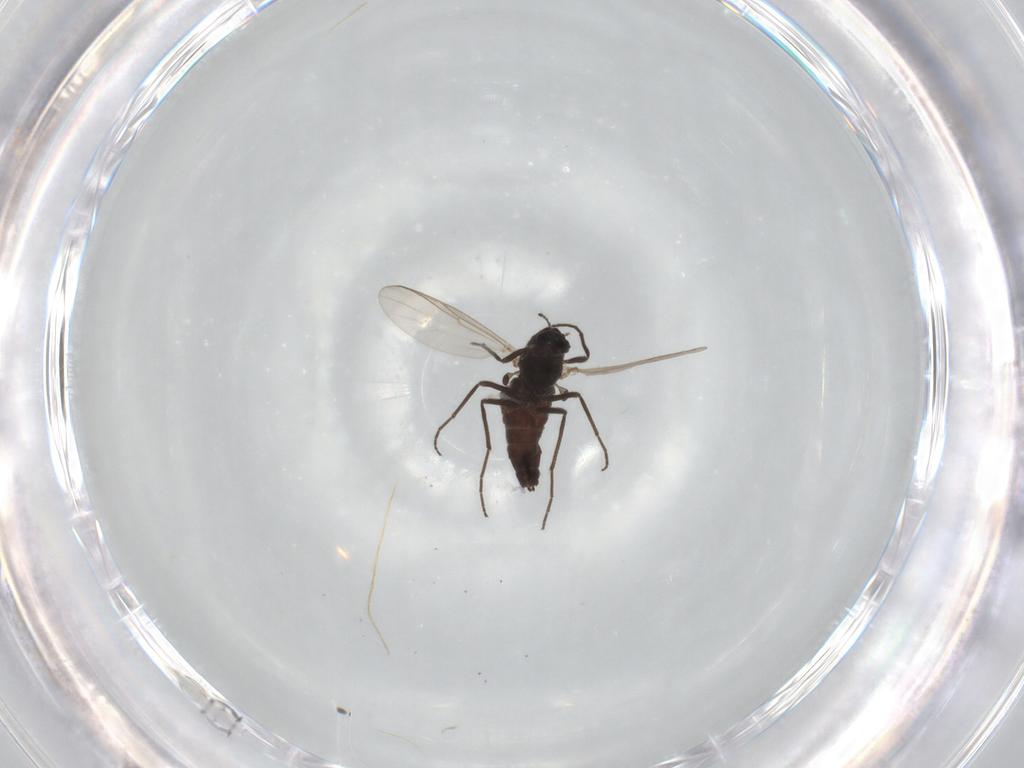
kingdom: Animalia
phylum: Arthropoda
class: Insecta
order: Diptera
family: Chironomidae
